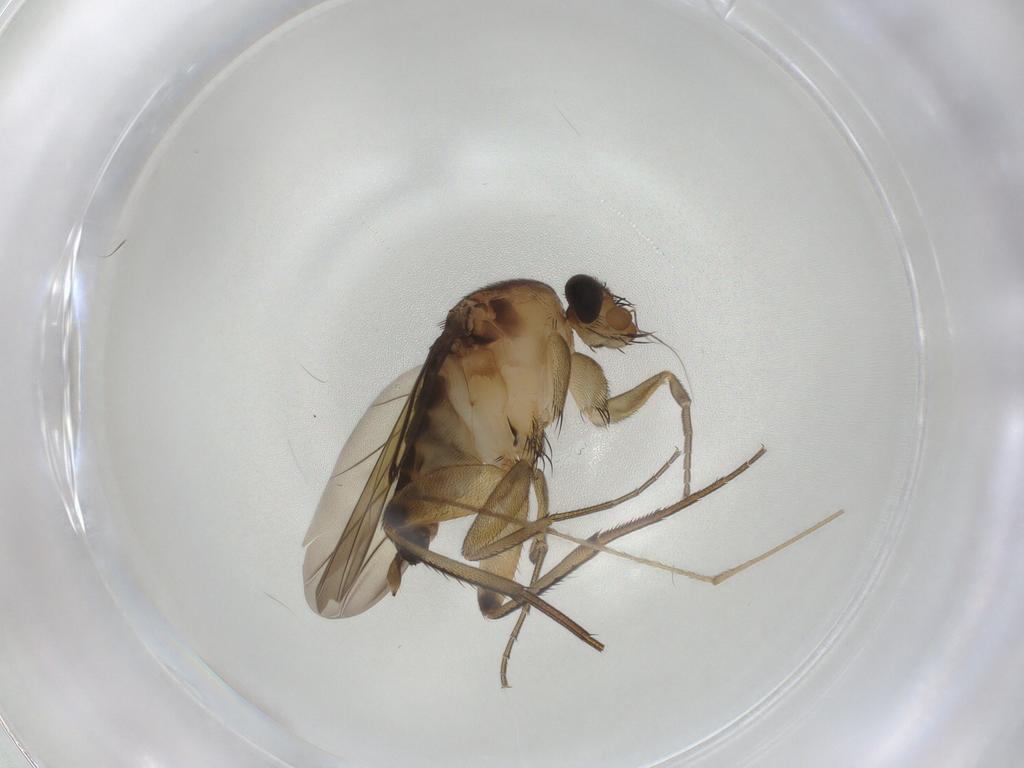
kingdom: Animalia
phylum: Arthropoda
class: Insecta
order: Diptera
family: Phoridae
